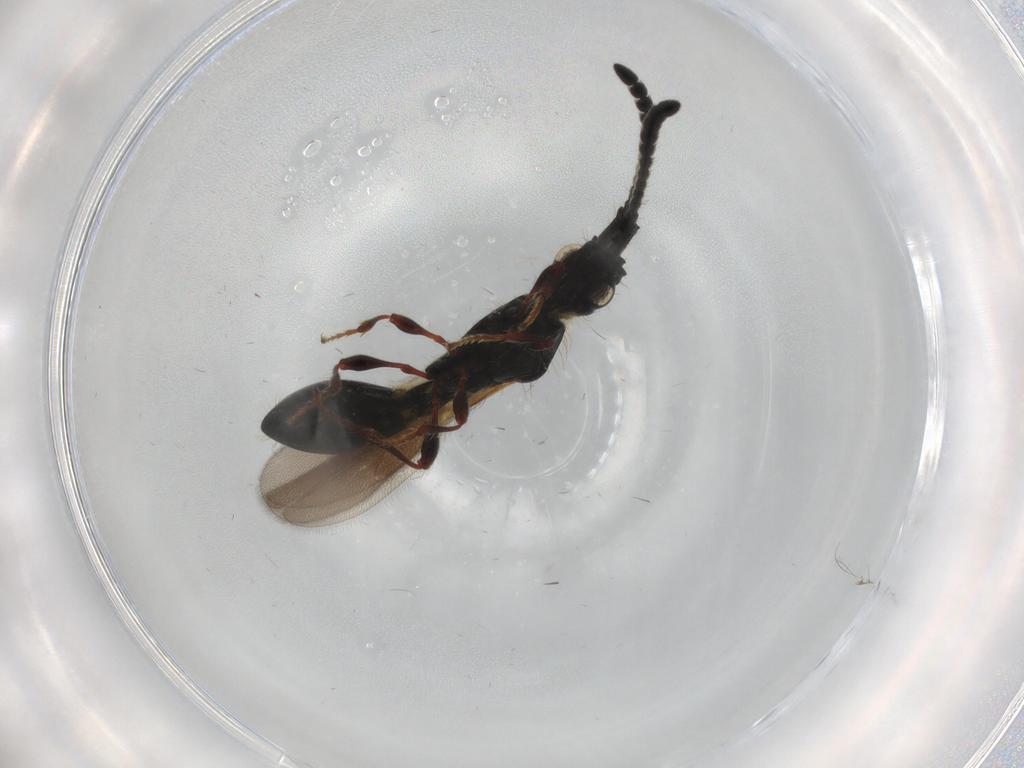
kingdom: Animalia
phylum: Arthropoda
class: Insecta
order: Hymenoptera
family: Diapriidae
